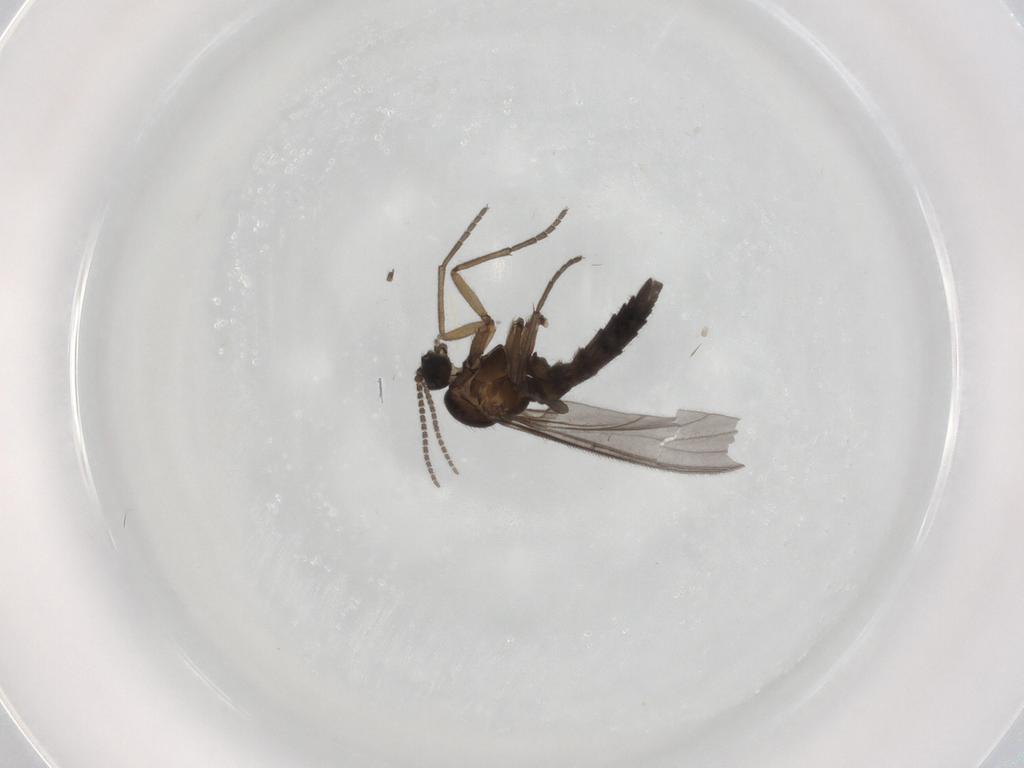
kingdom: Animalia
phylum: Arthropoda
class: Insecta
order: Diptera
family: Sciaridae
